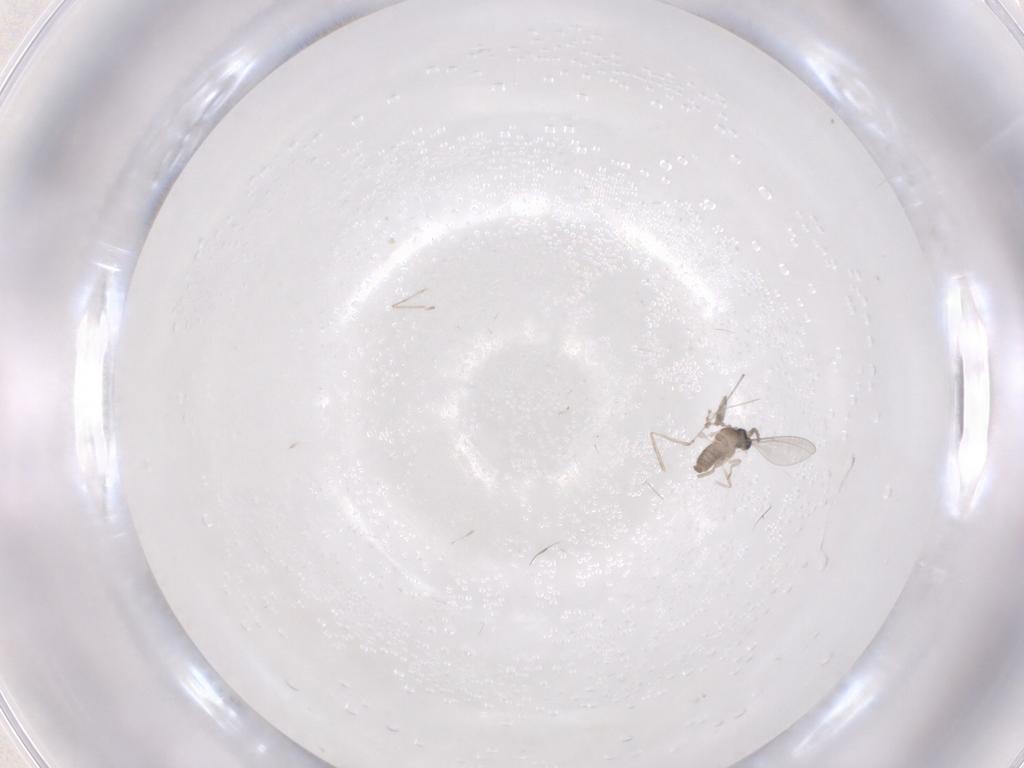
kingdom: Animalia
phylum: Arthropoda
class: Insecta
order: Diptera
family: Cecidomyiidae
